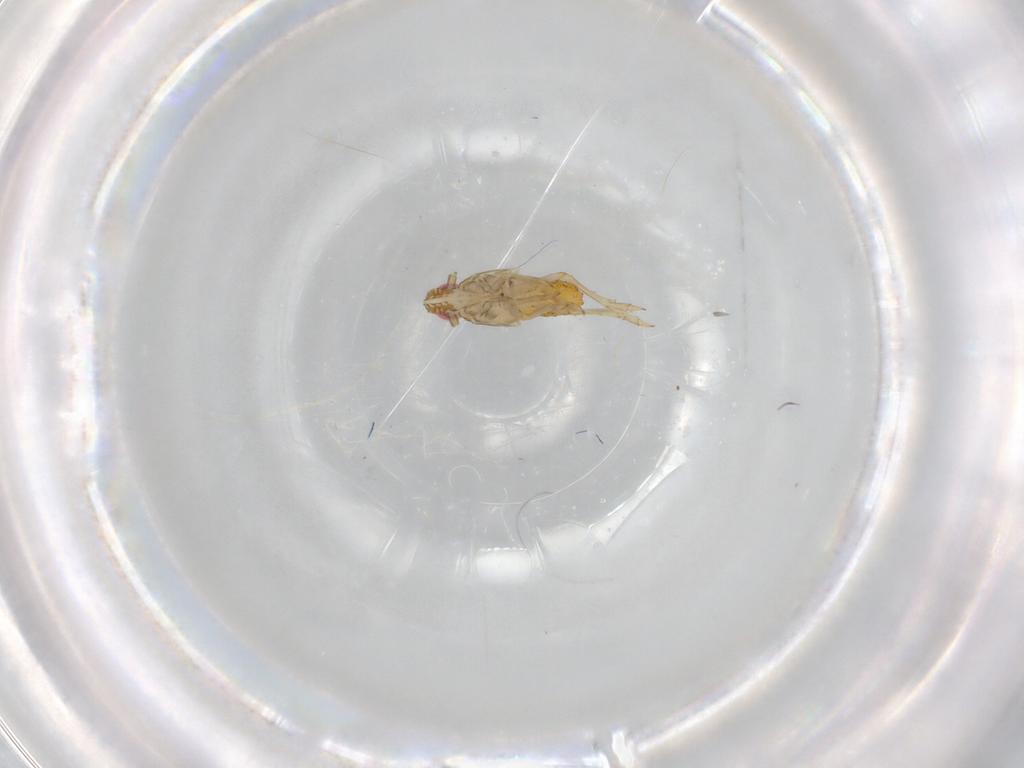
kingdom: Animalia
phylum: Arthropoda
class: Insecta
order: Hemiptera
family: Delphacidae
